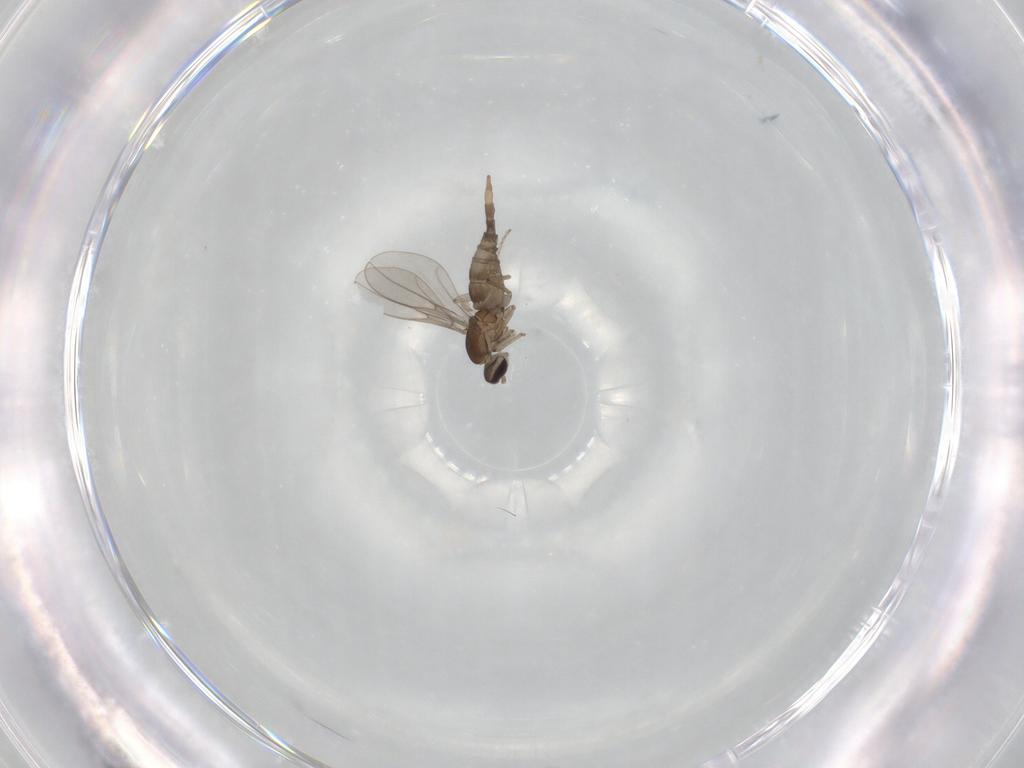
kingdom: Animalia
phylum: Arthropoda
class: Insecta
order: Diptera
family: Cecidomyiidae
